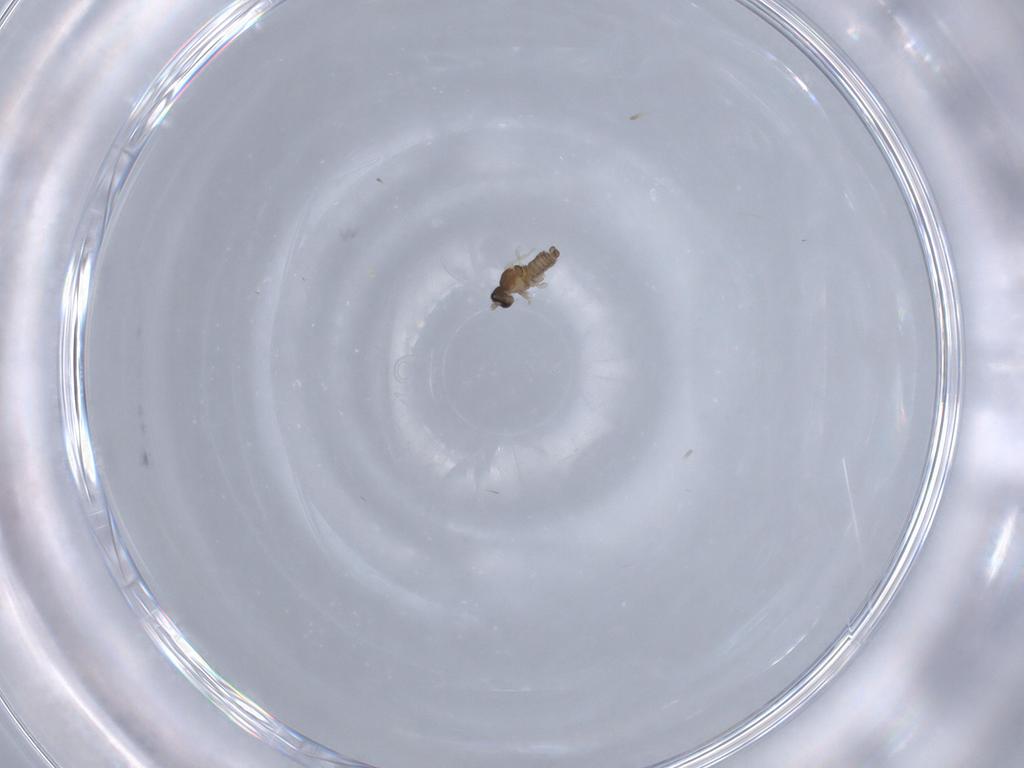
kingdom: Animalia
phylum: Arthropoda
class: Insecta
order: Diptera
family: Cecidomyiidae
